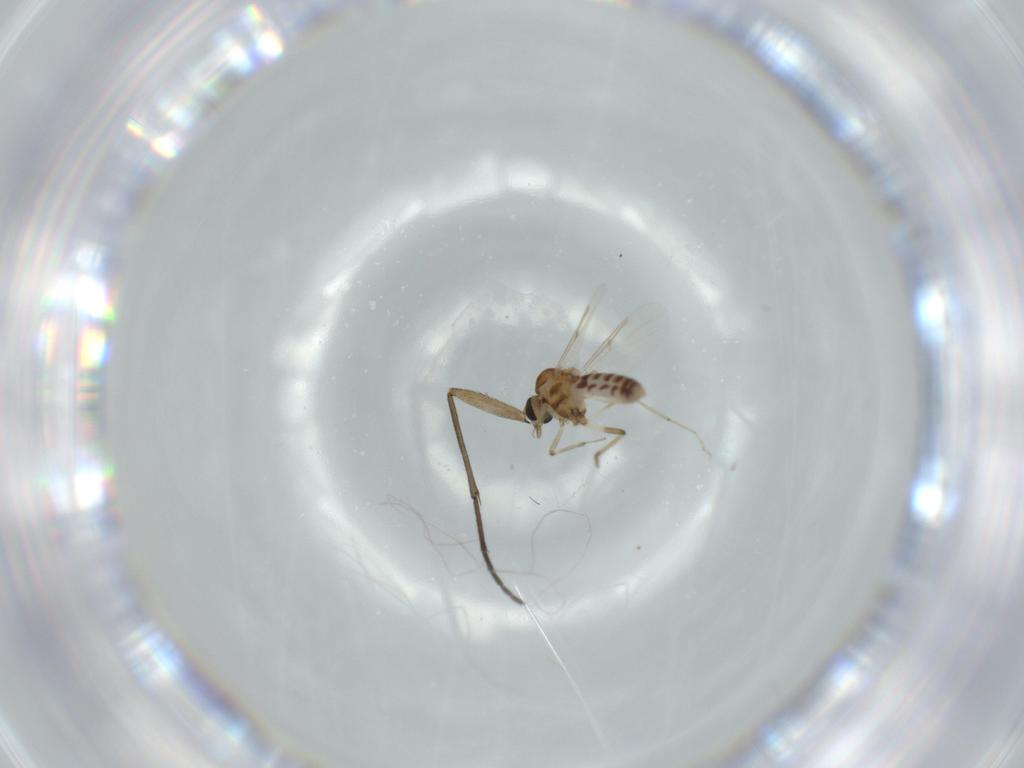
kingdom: Animalia
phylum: Arthropoda
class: Insecta
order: Diptera
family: Sciaridae
